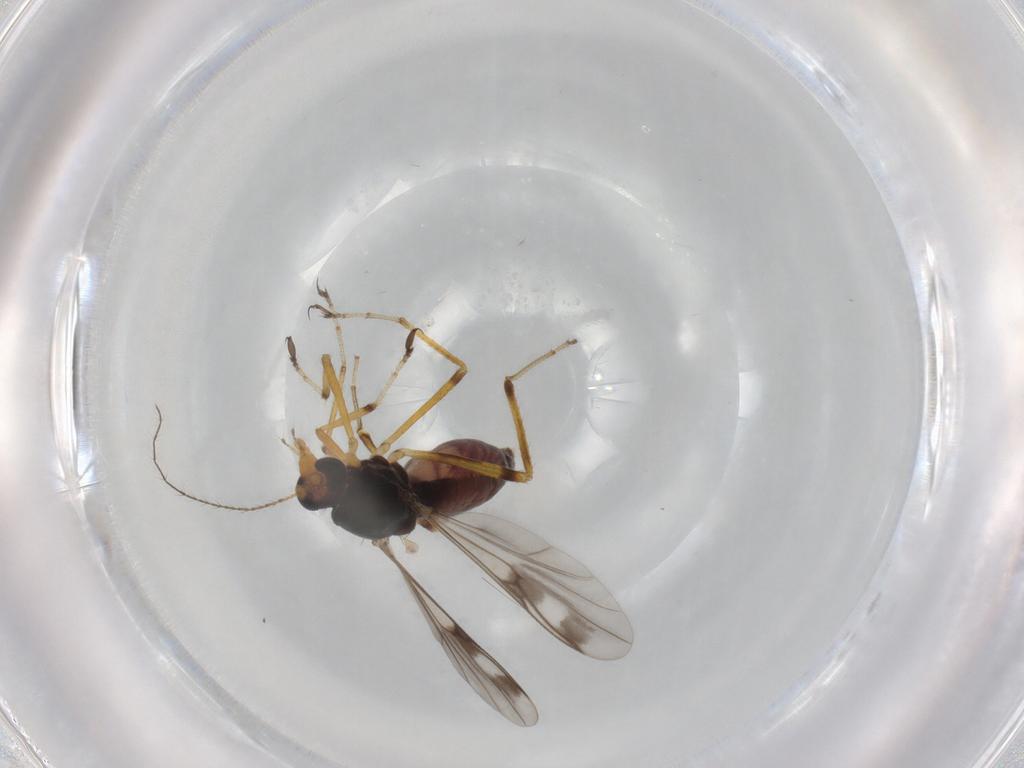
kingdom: Animalia
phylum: Arthropoda
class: Insecta
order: Diptera
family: Ceratopogonidae
